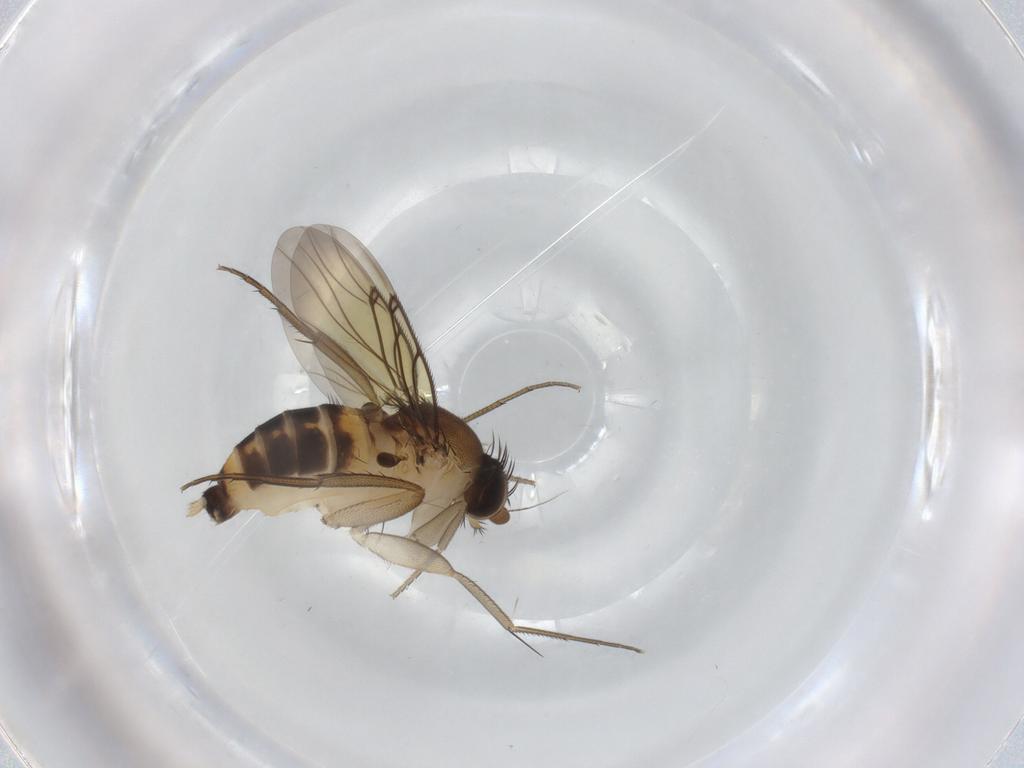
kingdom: Animalia
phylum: Arthropoda
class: Insecta
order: Diptera
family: Psychodidae
